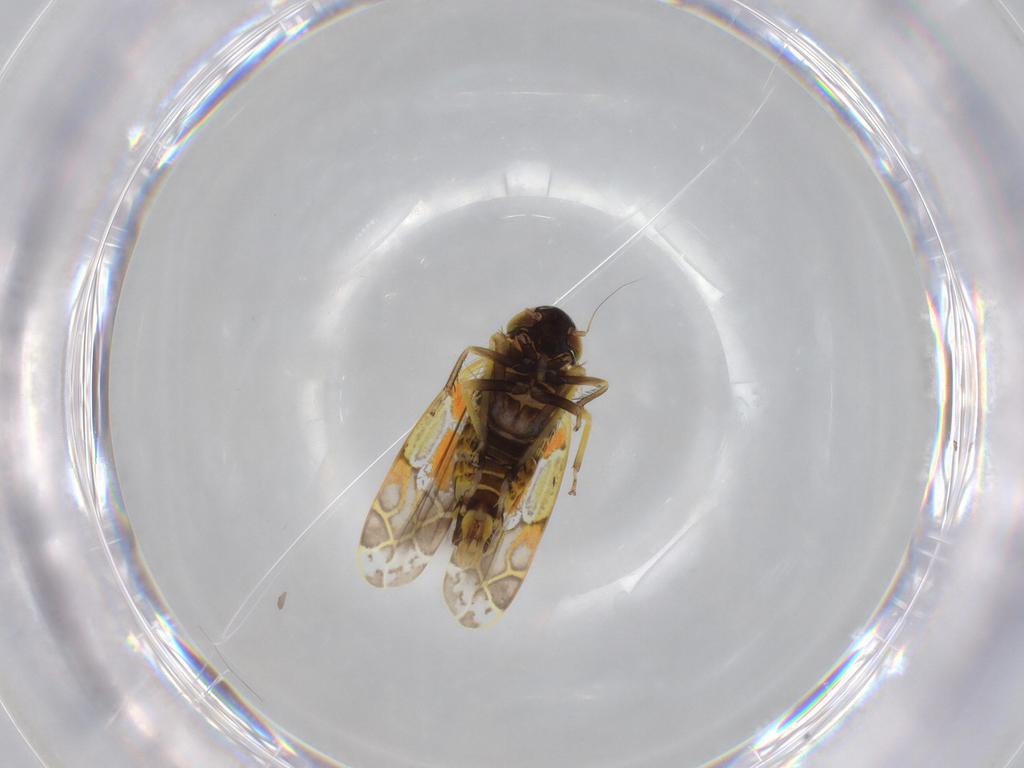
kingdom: Animalia
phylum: Arthropoda
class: Insecta
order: Hemiptera
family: Cicadellidae
